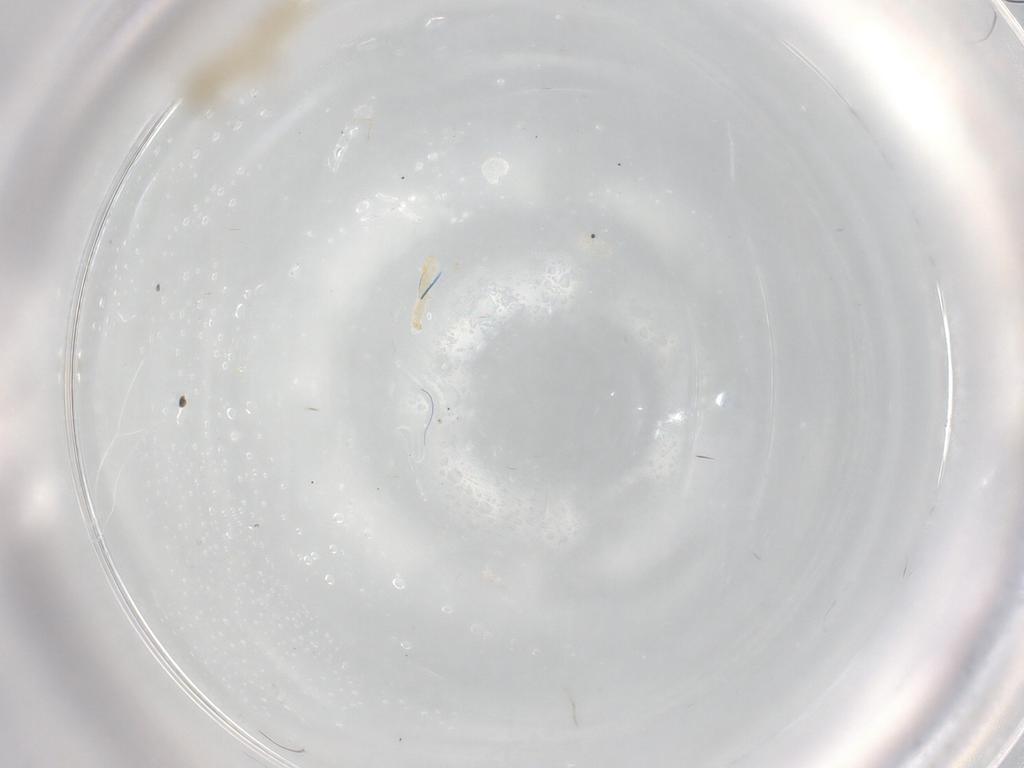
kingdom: Animalia
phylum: Arthropoda
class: Insecta
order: Diptera
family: Chironomidae
